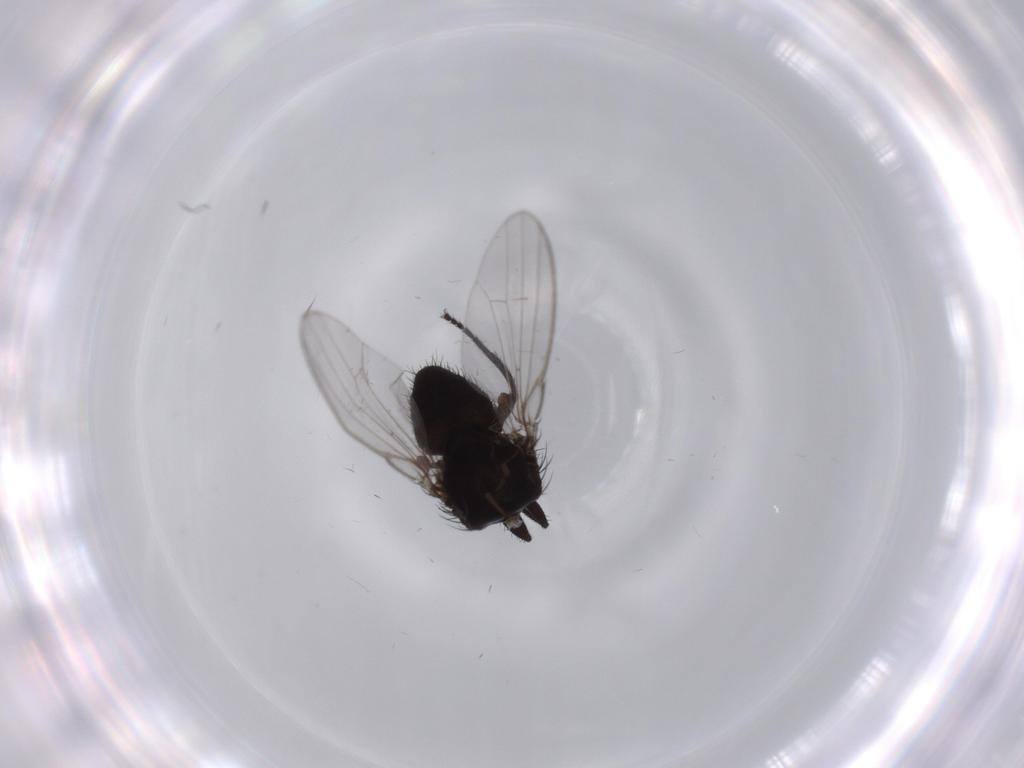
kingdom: Animalia
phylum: Arthropoda
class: Insecta
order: Diptera
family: Milichiidae
